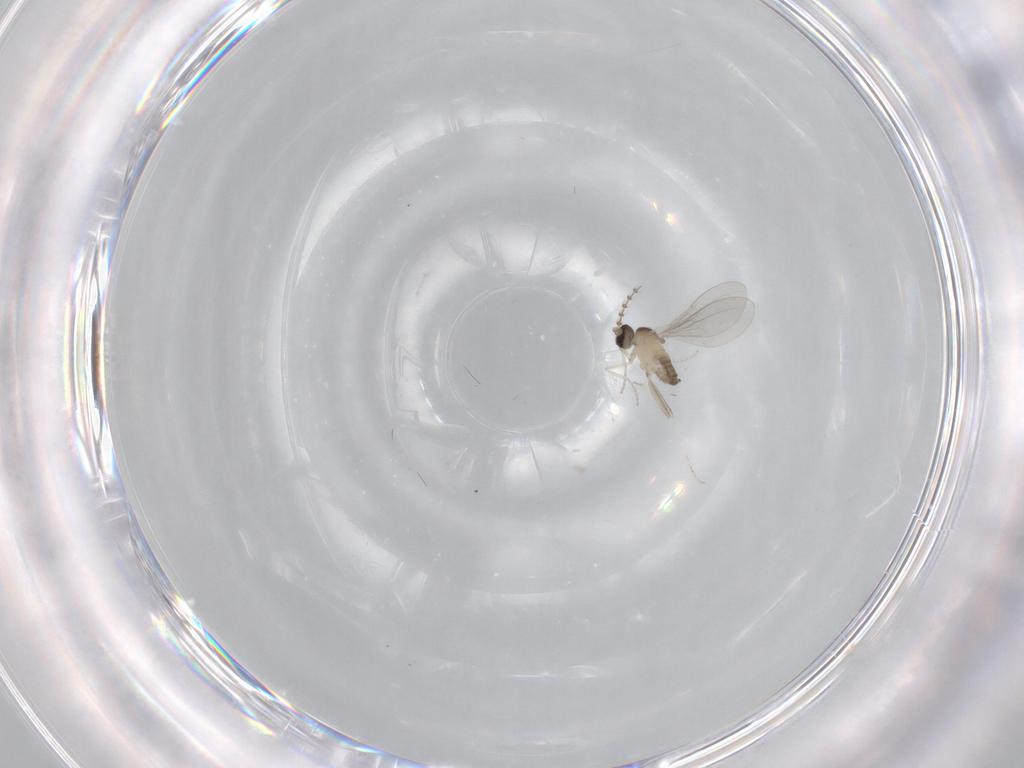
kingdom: Animalia
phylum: Arthropoda
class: Insecta
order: Diptera
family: Cecidomyiidae
